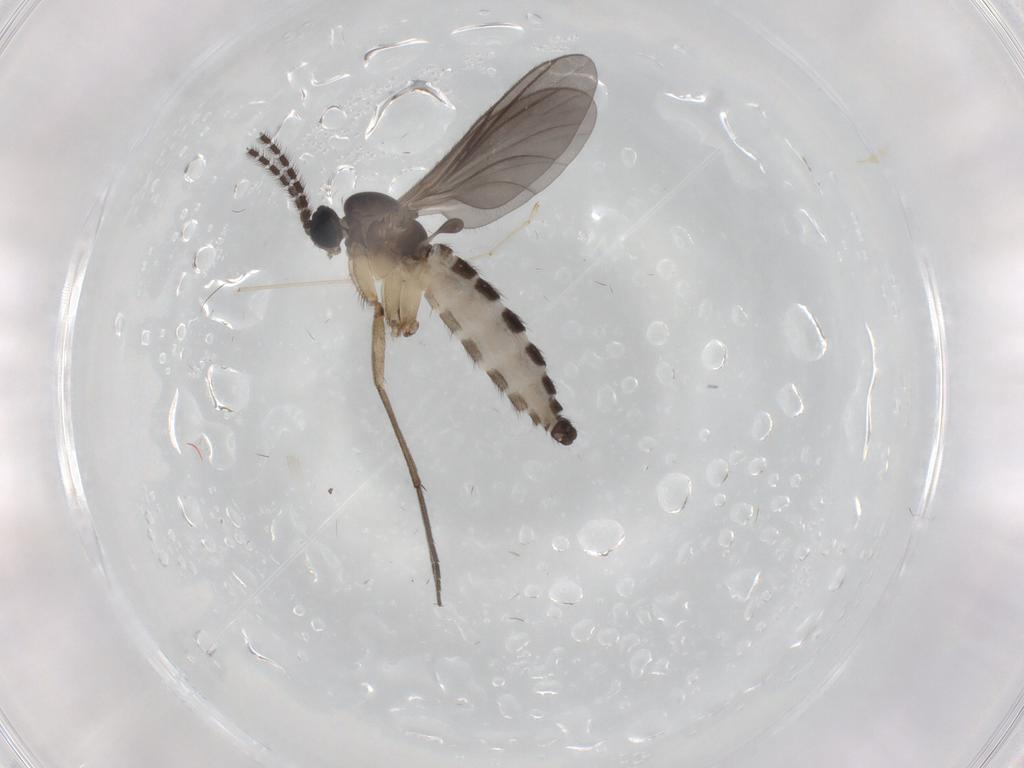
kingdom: Animalia
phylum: Arthropoda
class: Insecta
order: Diptera
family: Sciaridae
